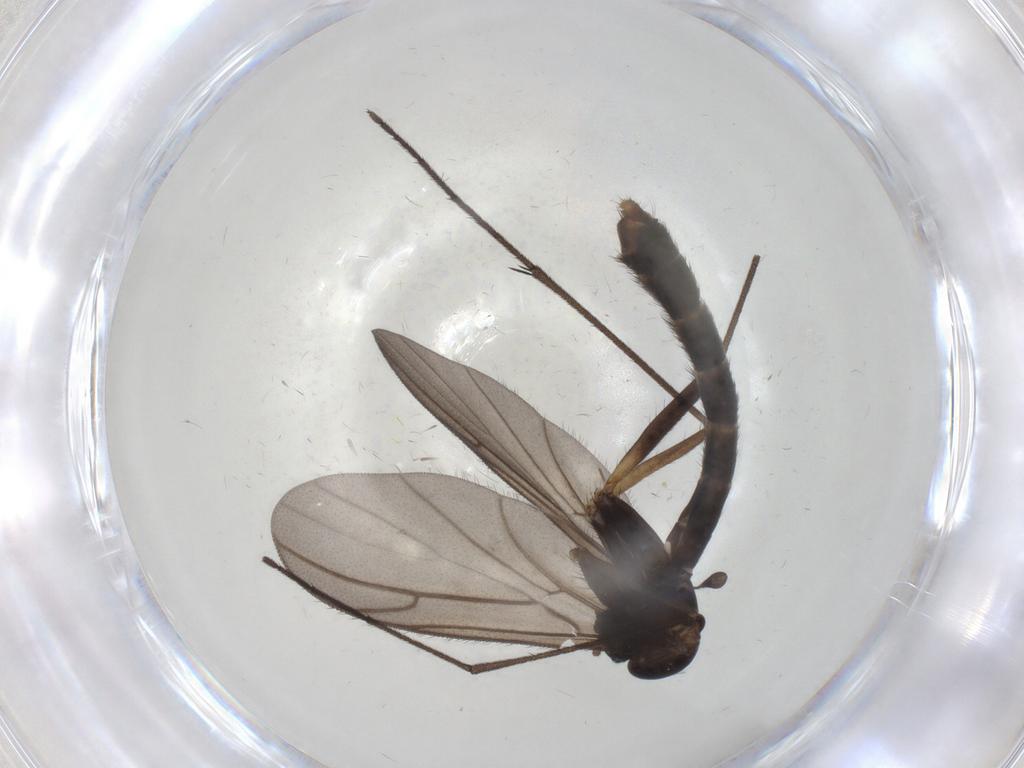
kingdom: Animalia
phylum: Arthropoda
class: Insecta
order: Diptera
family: Ditomyiidae
